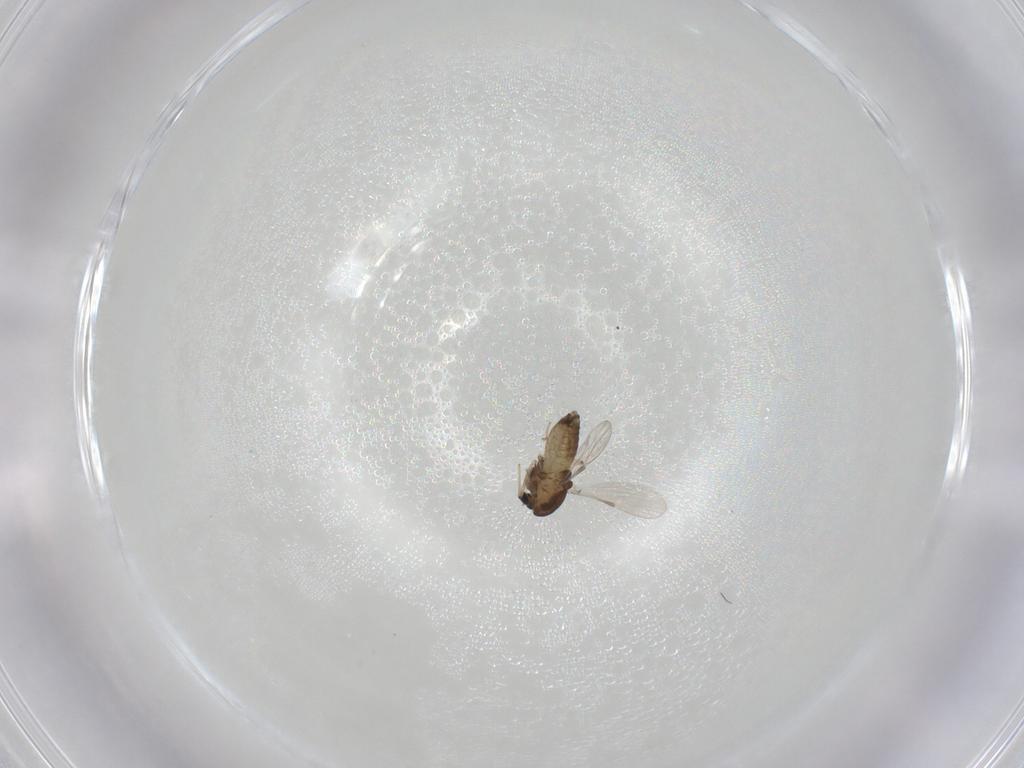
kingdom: Animalia
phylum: Arthropoda
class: Insecta
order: Diptera
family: Chironomidae
